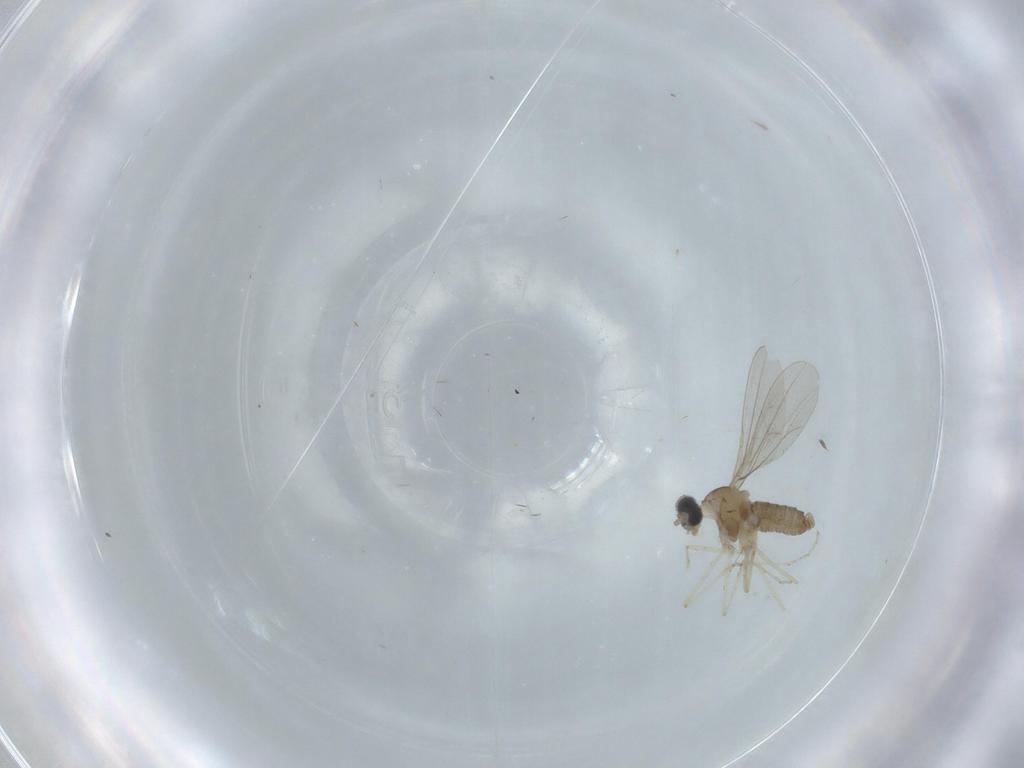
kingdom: Animalia
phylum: Arthropoda
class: Insecta
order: Diptera
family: Cecidomyiidae
